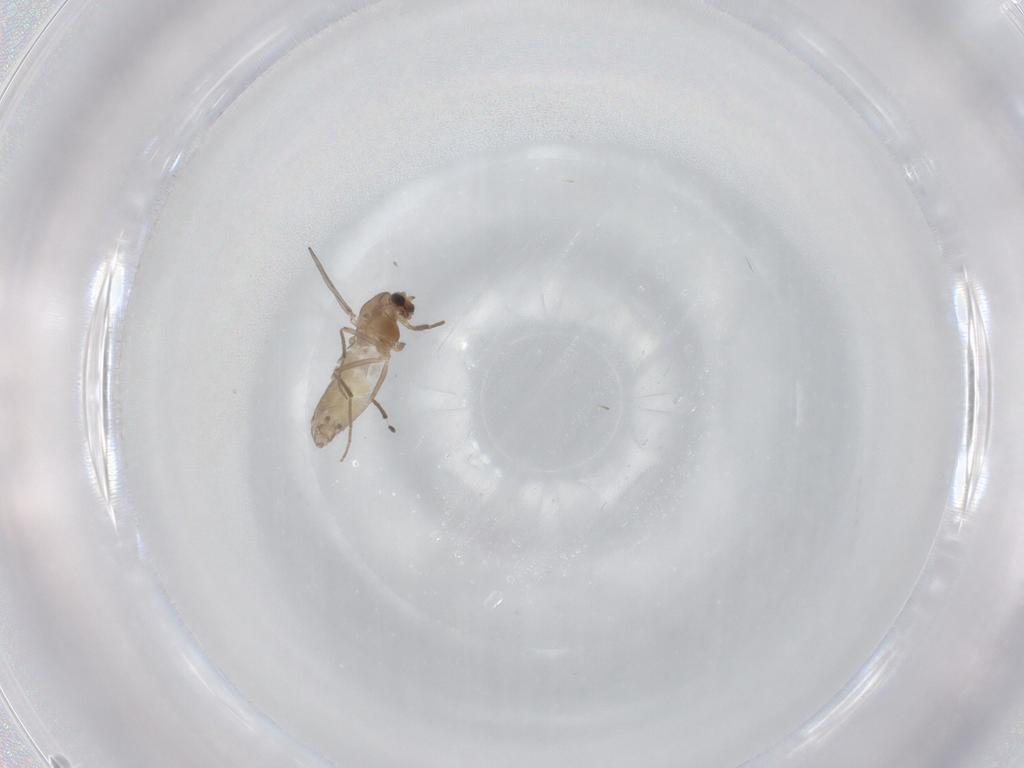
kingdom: Animalia
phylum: Arthropoda
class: Insecta
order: Diptera
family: Chironomidae
